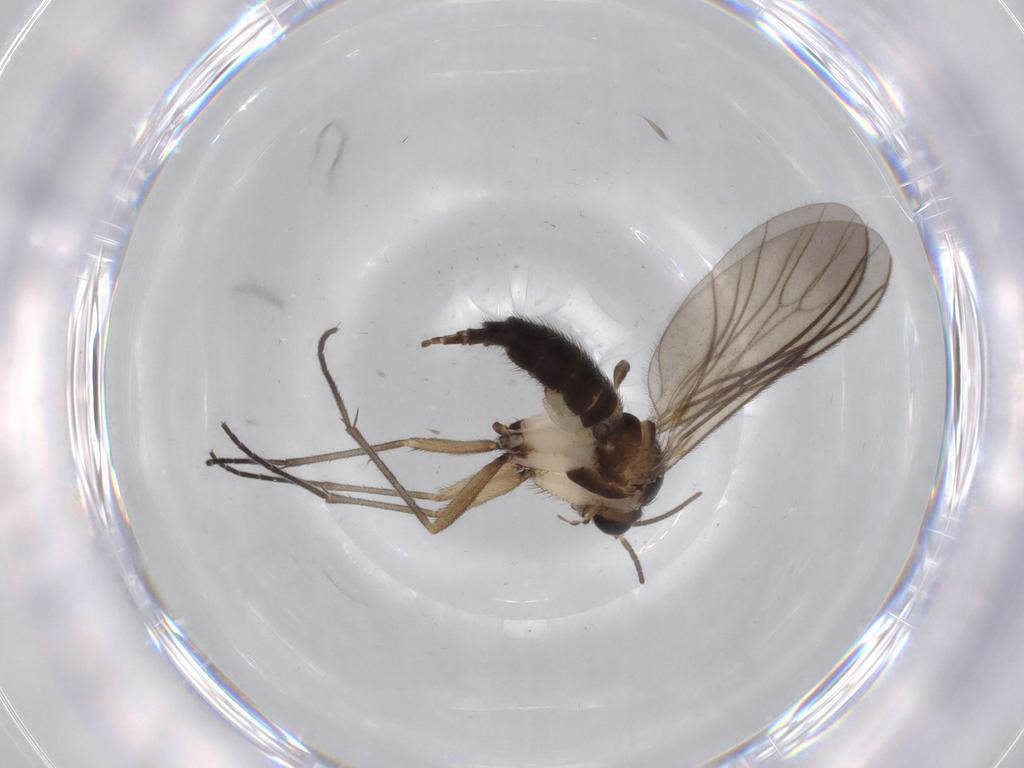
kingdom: Animalia
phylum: Arthropoda
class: Insecta
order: Diptera
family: Sciaridae
